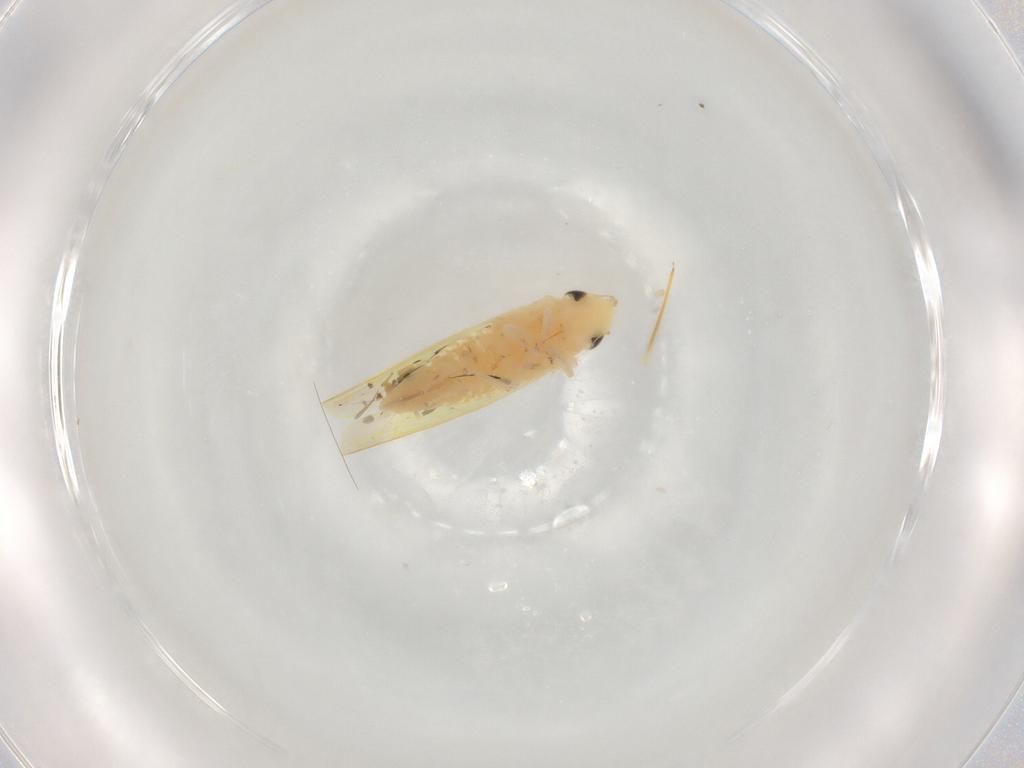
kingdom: Animalia
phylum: Arthropoda
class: Insecta
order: Hemiptera
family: Cicadellidae
